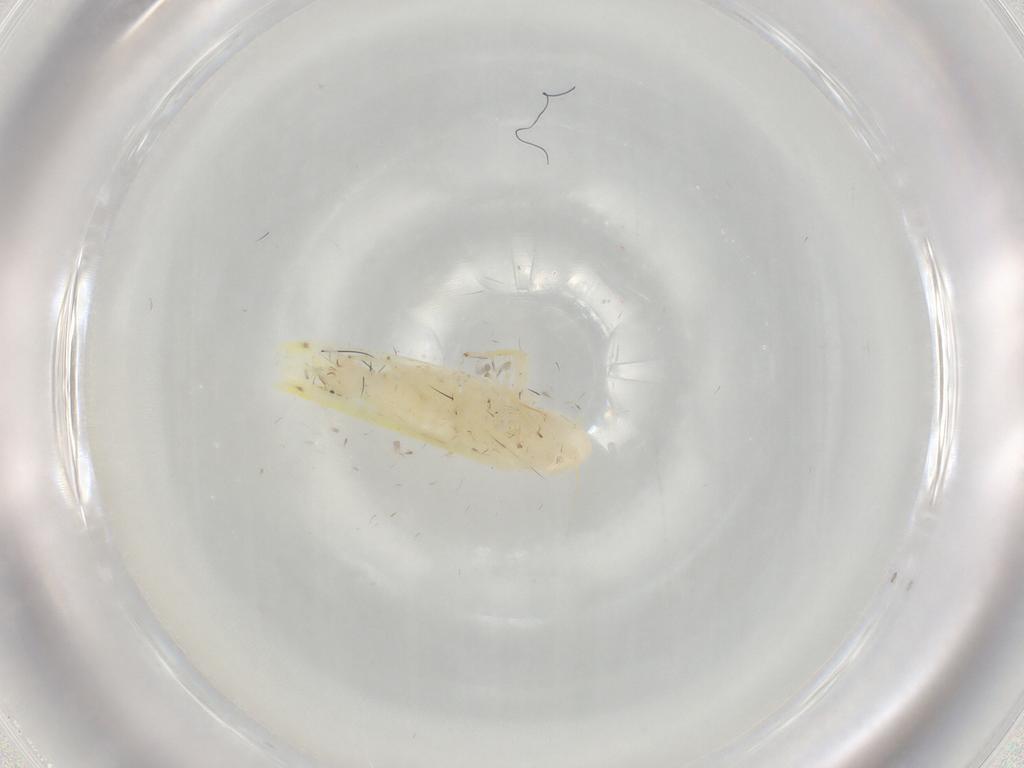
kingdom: Animalia
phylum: Arthropoda
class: Insecta
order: Hemiptera
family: Cicadellidae
